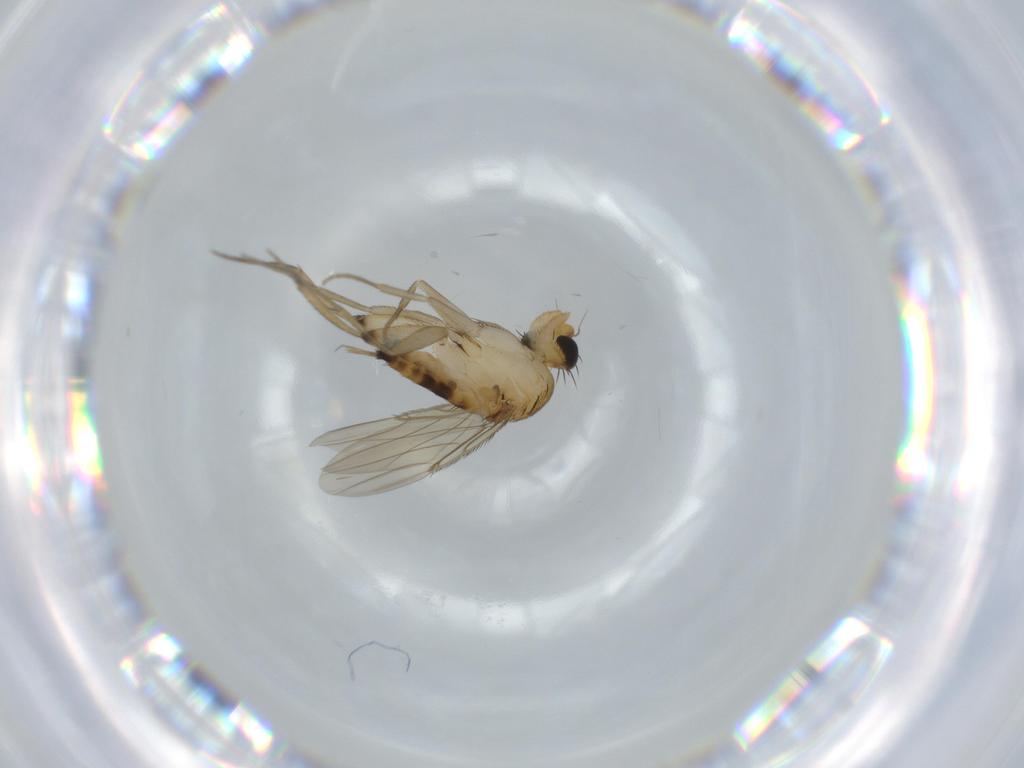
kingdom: Animalia
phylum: Arthropoda
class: Insecta
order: Diptera
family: Phoridae
